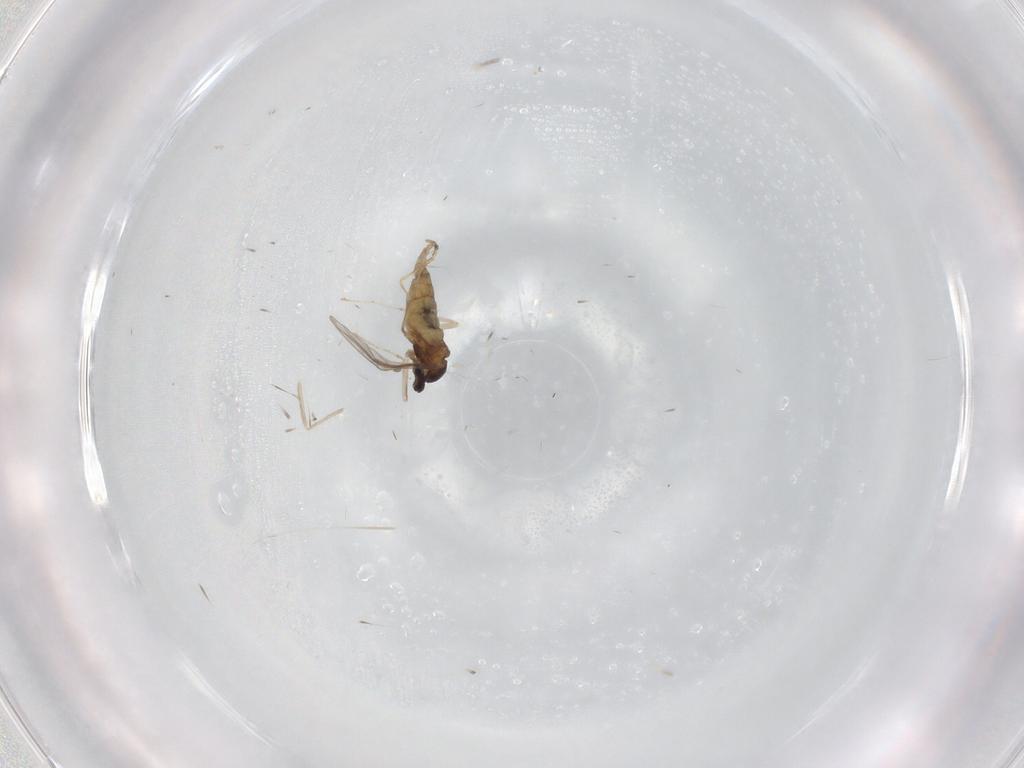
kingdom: Animalia
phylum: Arthropoda
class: Insecta
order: Diptera
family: Cecidomyiidae
